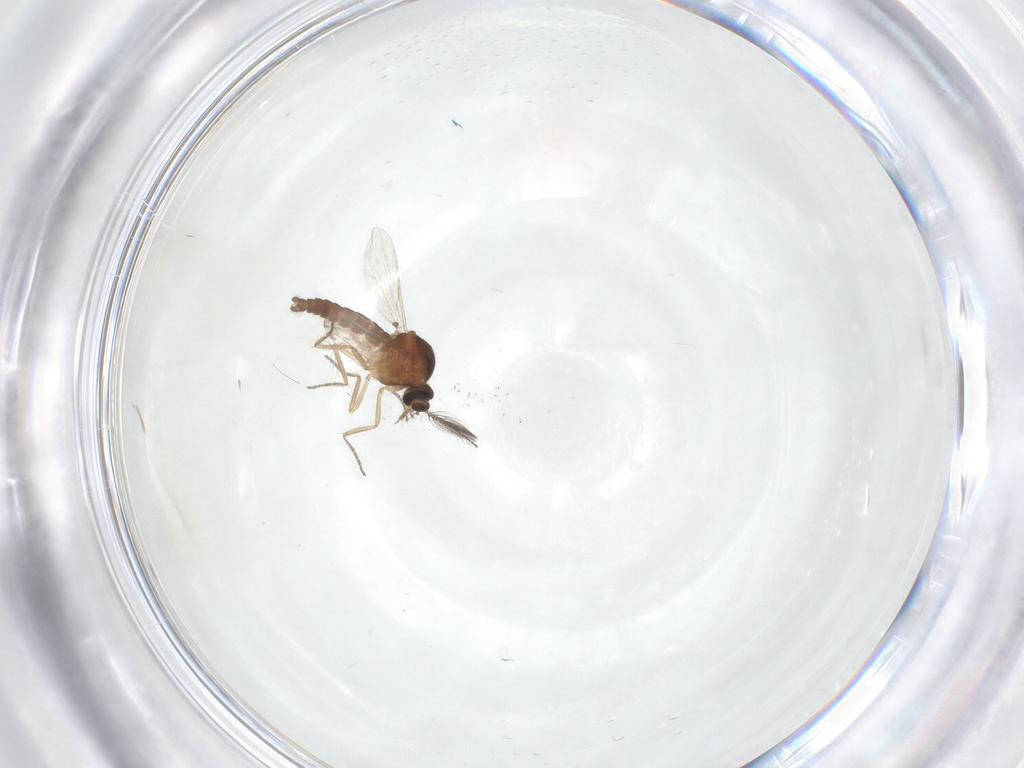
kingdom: Animalia
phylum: Arthropoda
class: Insecta
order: Diptera
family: Ceratopogonidae
